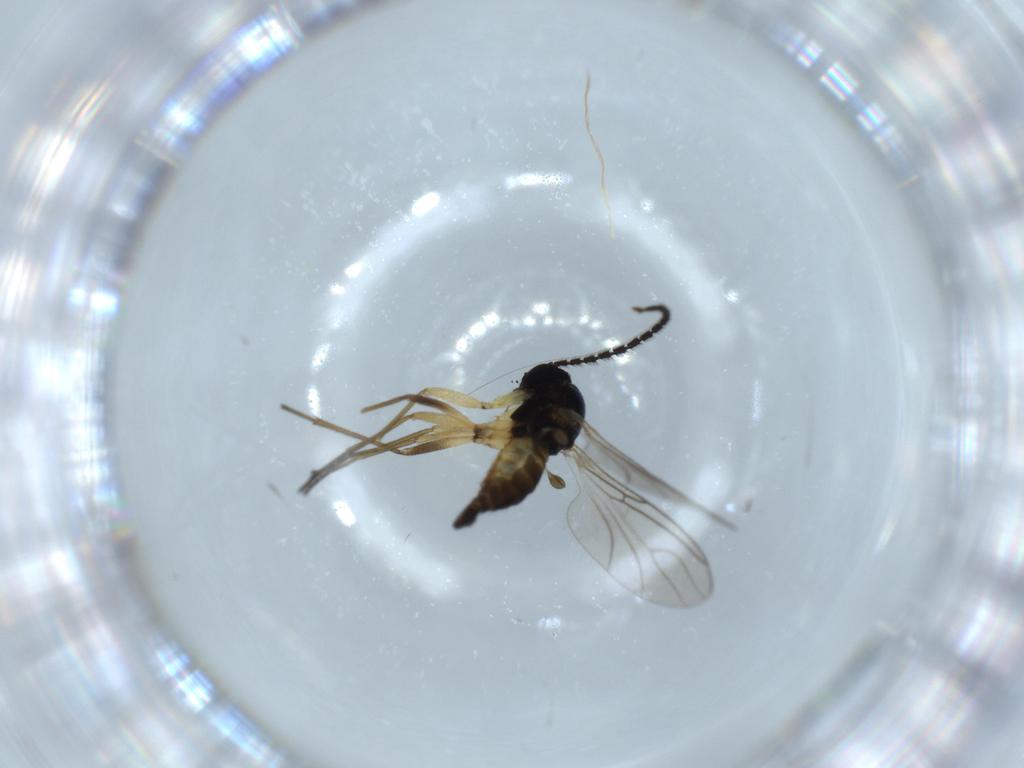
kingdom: Animalia
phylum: Arthropoda
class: Insecta
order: Diptera
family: Sciaridae
